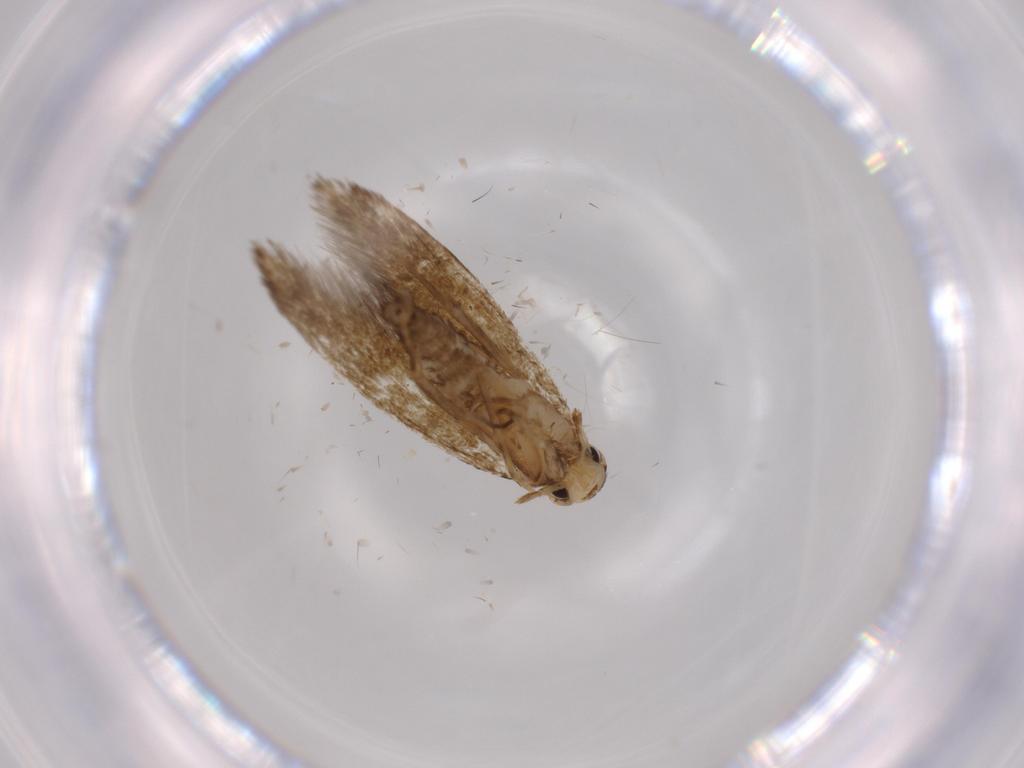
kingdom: Animalia
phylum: Arthropoda
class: Insecta
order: Lepidoptera
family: Tineidae
